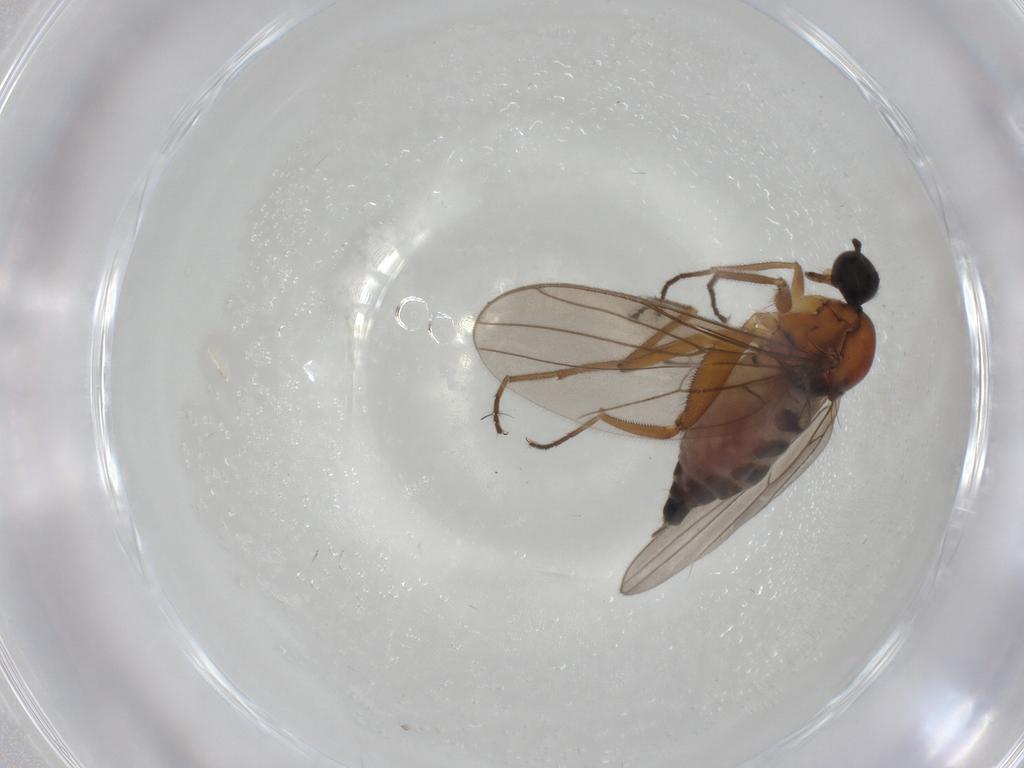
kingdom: Animalia
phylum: Arthropoda
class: Insecta
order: Diptera
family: Hybotidae
